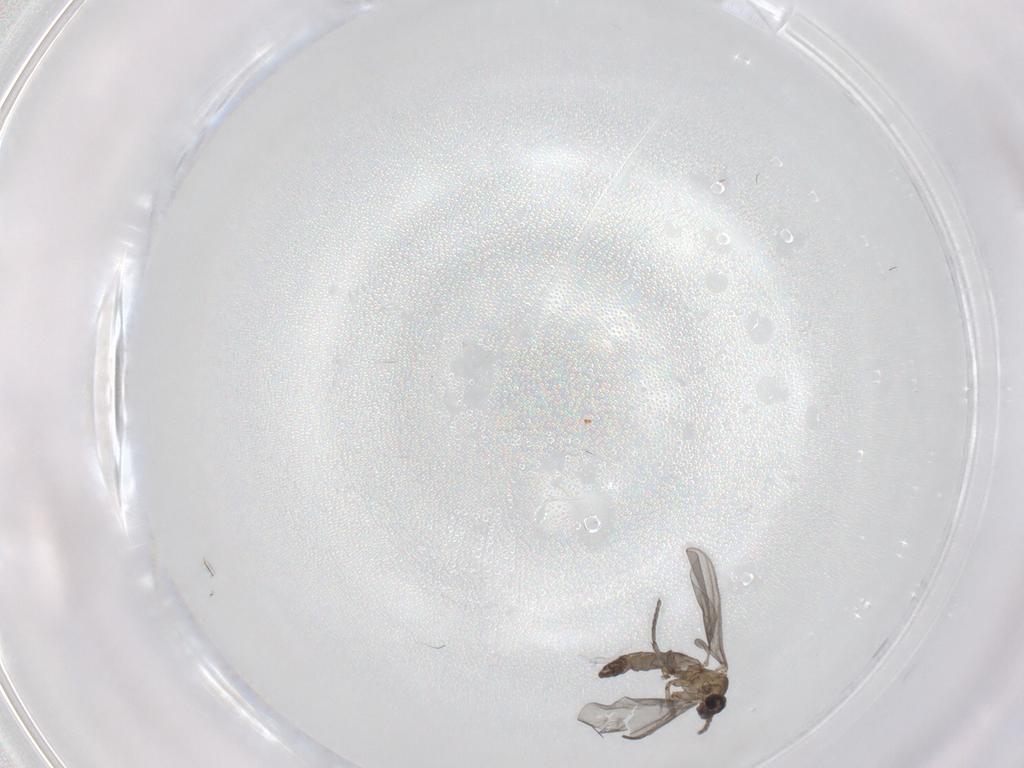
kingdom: Animalia
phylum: Arthropoda
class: Insecta
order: Diptera
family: Sciaridae
